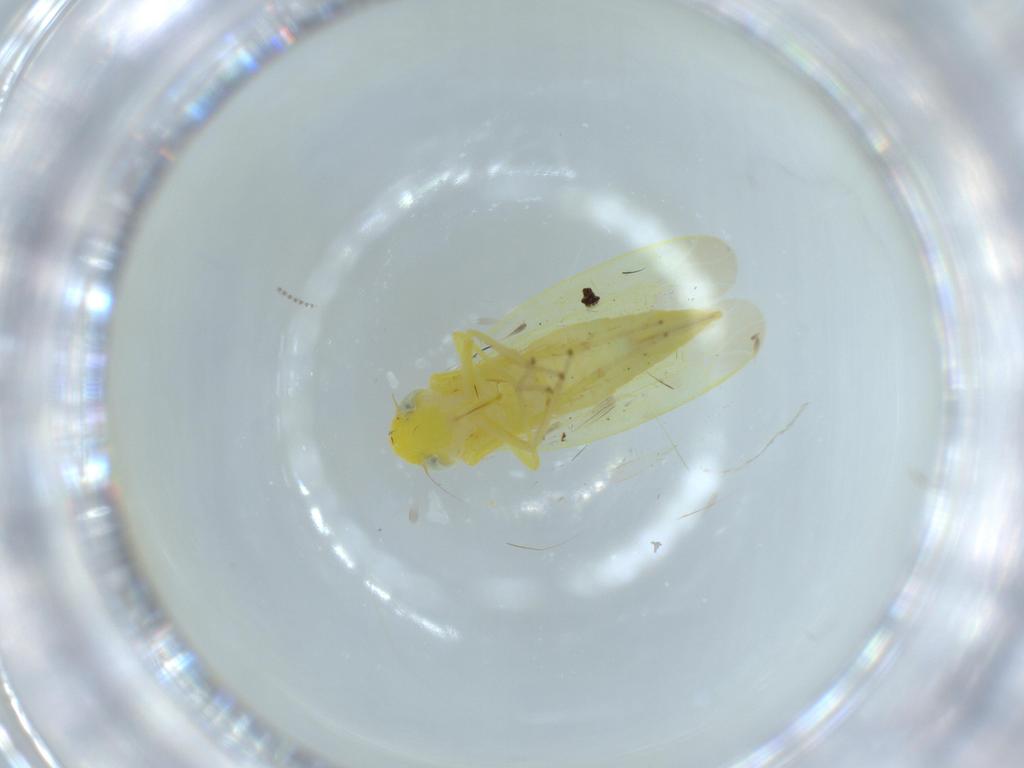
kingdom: Animalia
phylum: Arthropoda
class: Insecta
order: Hemiptera
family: Cicadellidae
